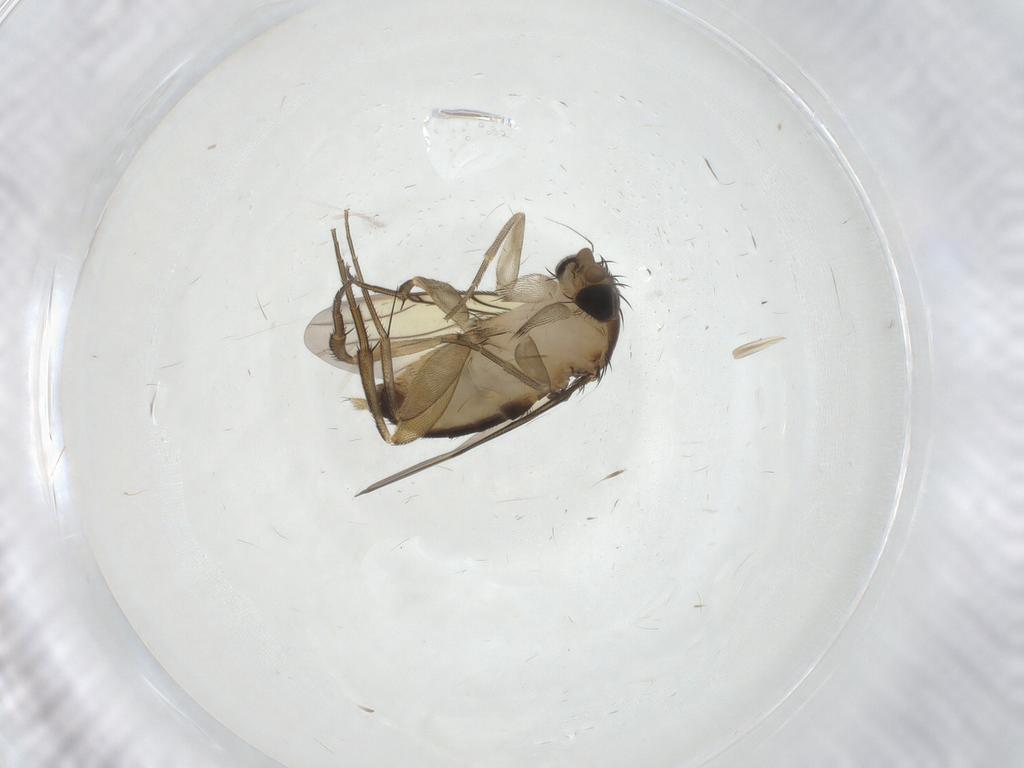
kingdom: Animalia
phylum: Arthropoda
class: Insecta
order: Diptera
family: Cecidomyiidae
